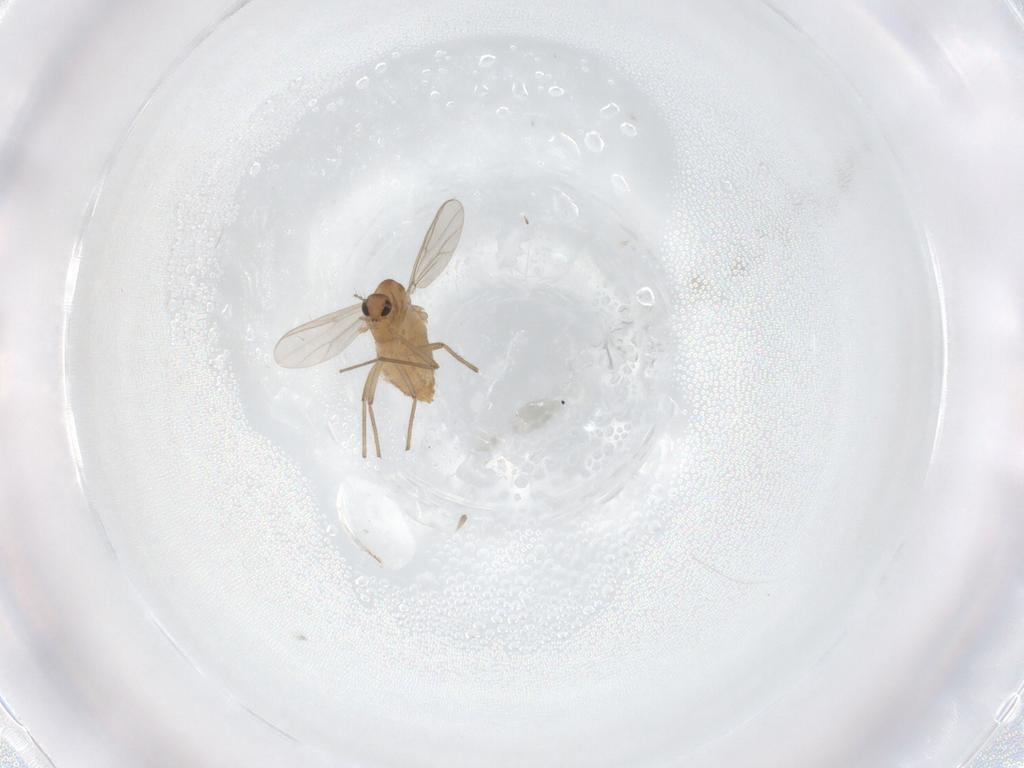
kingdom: Animalia
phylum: Arthropoda
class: Insecta
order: Diptera
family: Chironomidae
